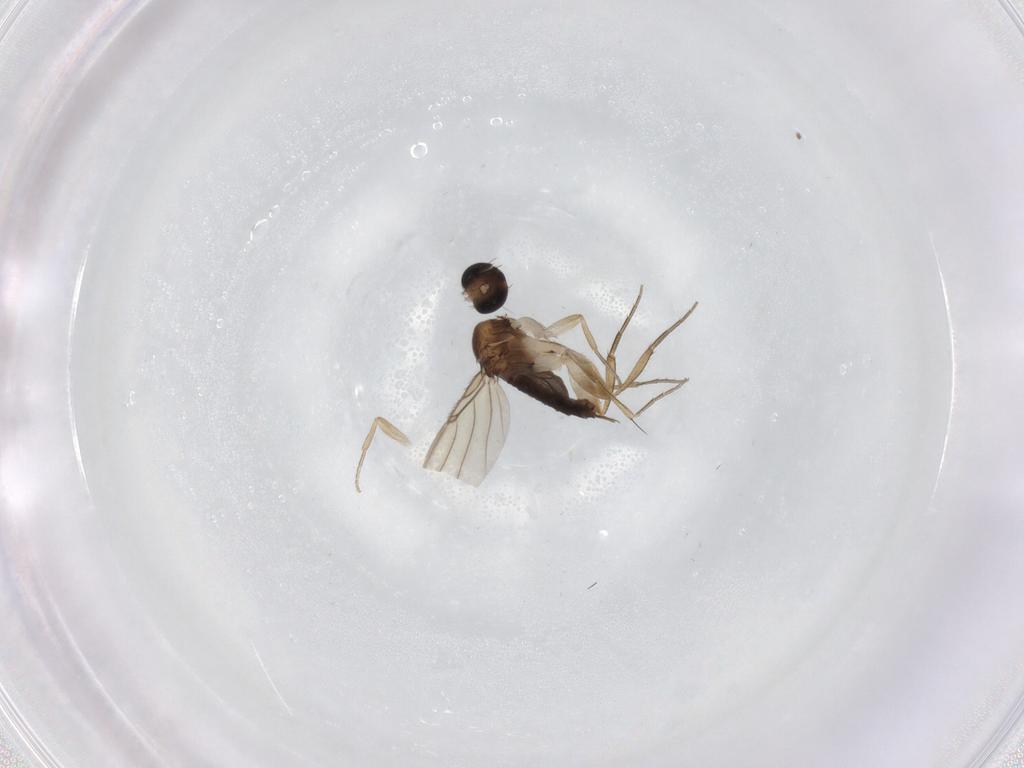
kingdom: Animalia
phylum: Arthropoda
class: Insecta
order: Diptera
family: Phoridae
